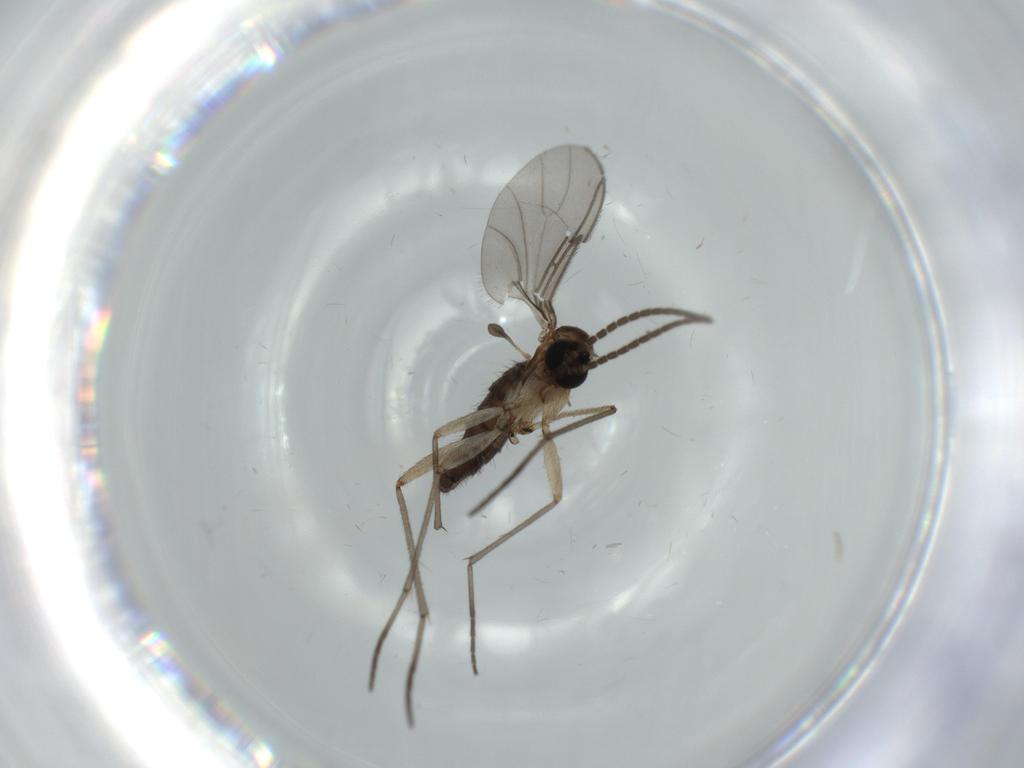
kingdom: Animalia
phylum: Arthropoda
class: Insecta
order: Diptera
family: Sciaridae
